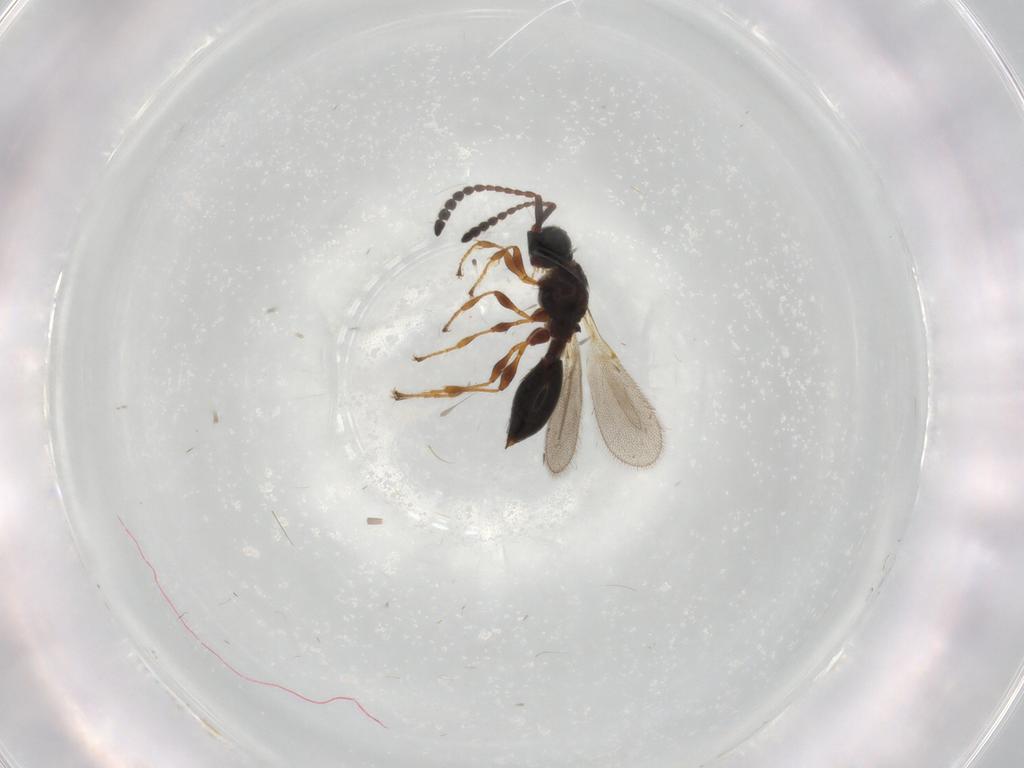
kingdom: Animalia
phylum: Arthropoda
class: Insecta
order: Hymenoptera
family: Diapriidae
